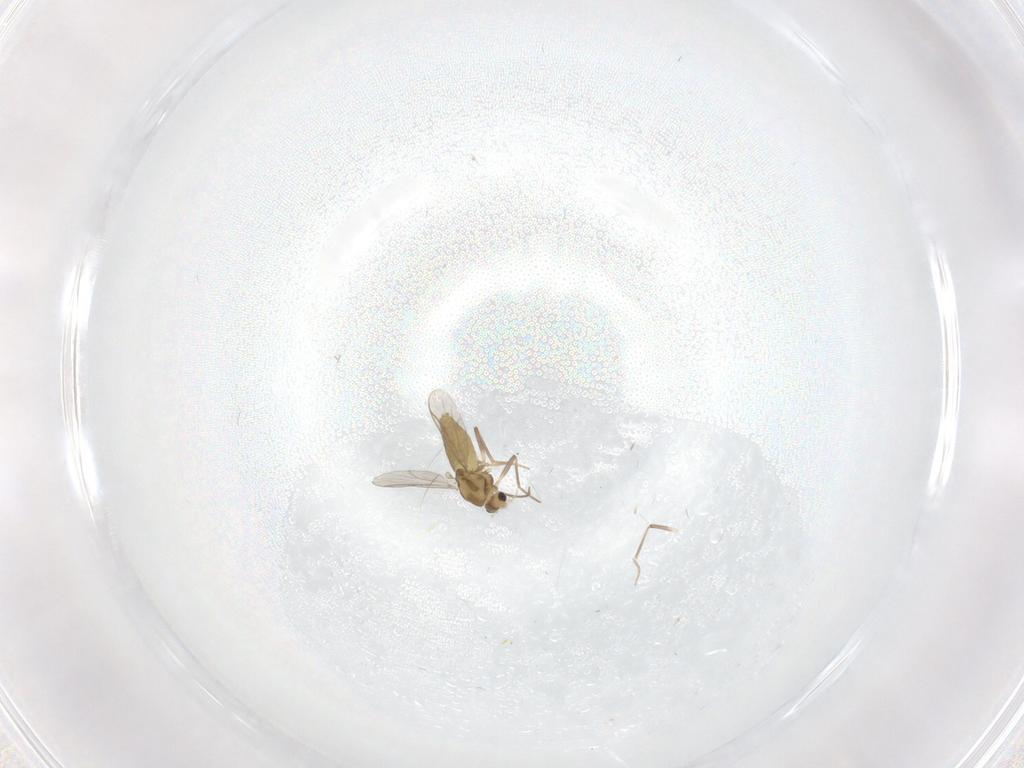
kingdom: Animalia
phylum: Arthropoda
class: Insecta
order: Diptera
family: Chironomidae
